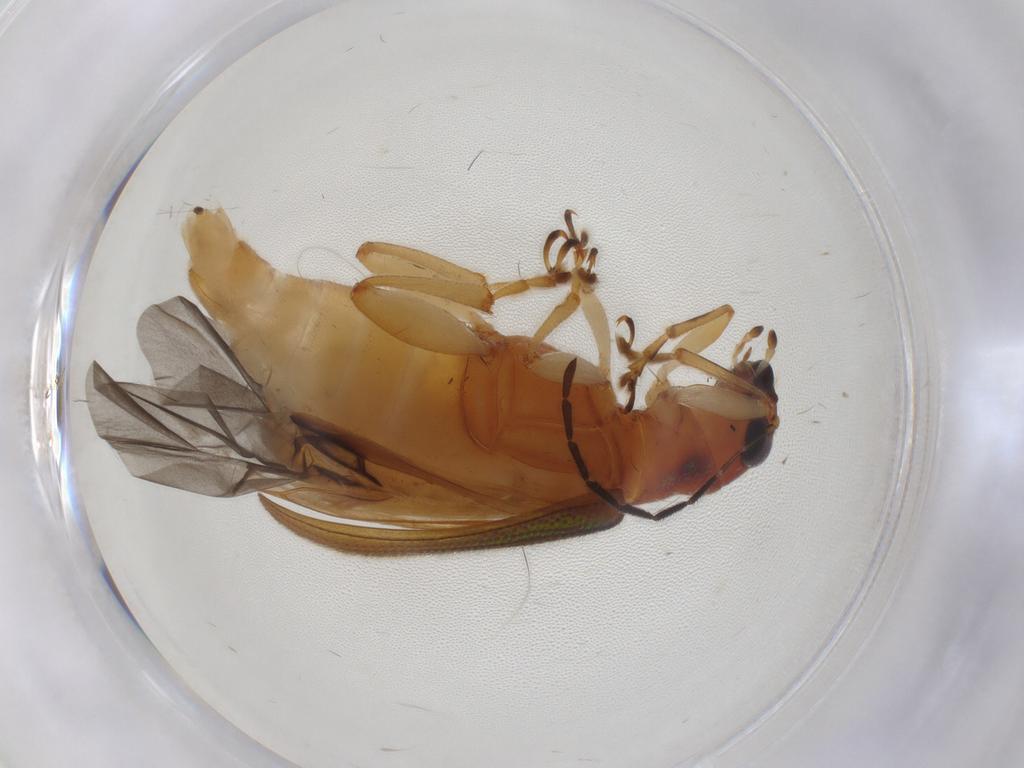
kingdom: Animalia
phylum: Arthropoda
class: Insecta
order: Coleoptera
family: Chrysomelidae
